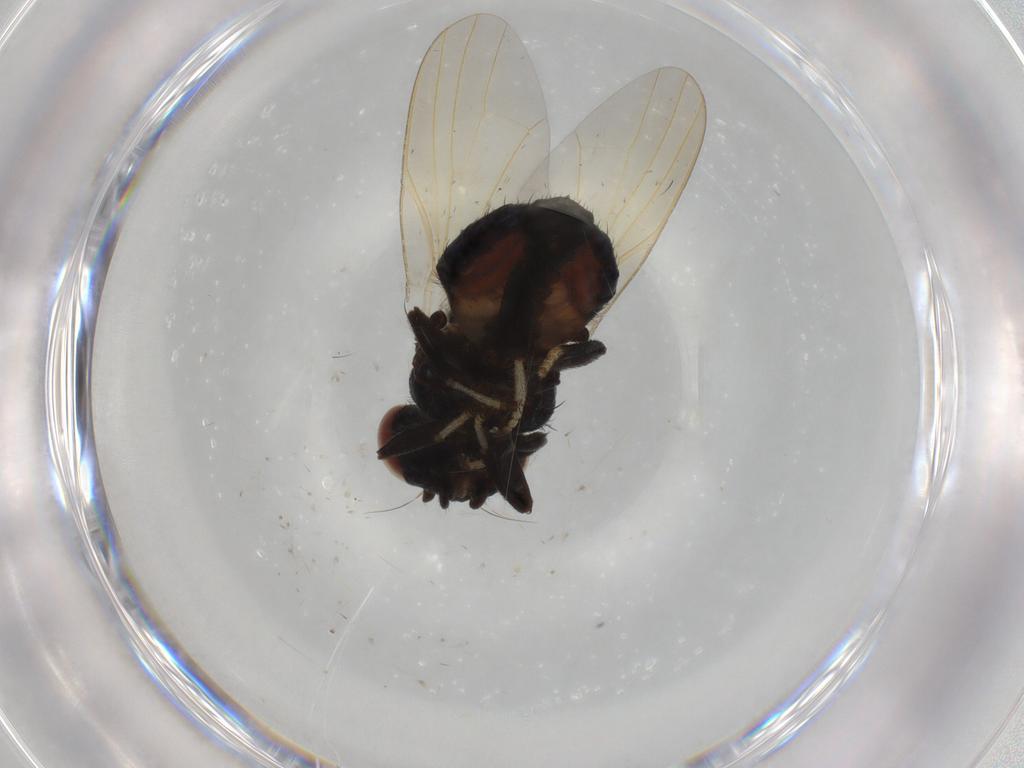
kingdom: Animalia
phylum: Arthropoda
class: Insecta
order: Diptera
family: Lonchaeidae
